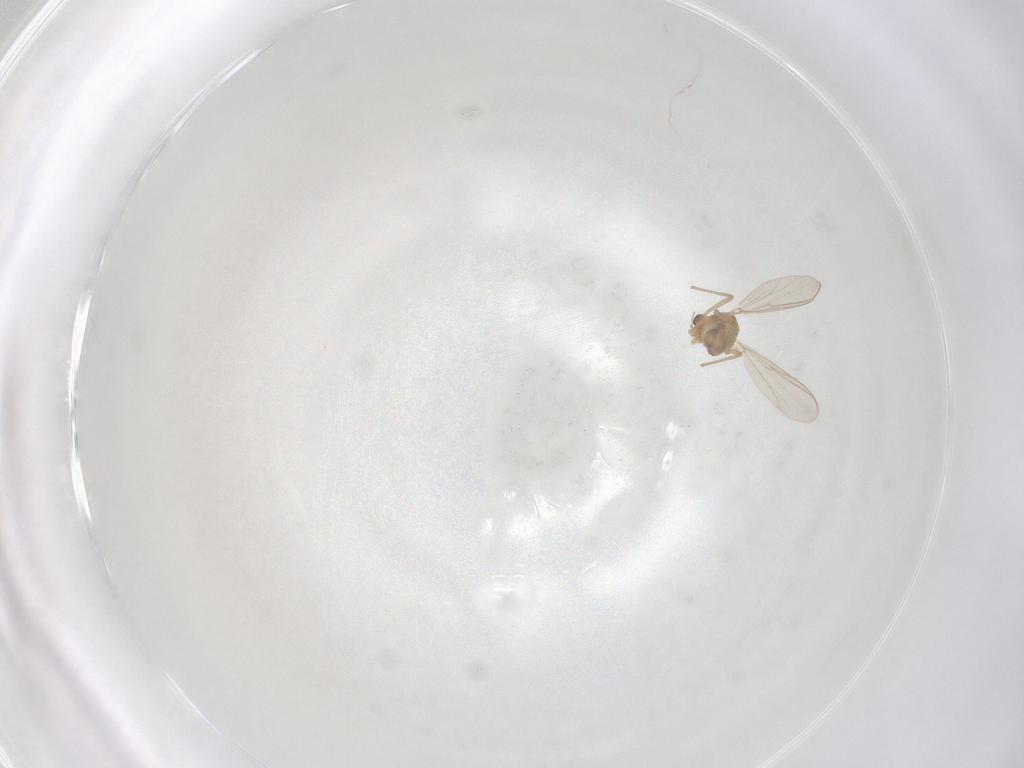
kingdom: Animalia
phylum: Arthropoda
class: Insecta
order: Diptera
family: Chironomidae
